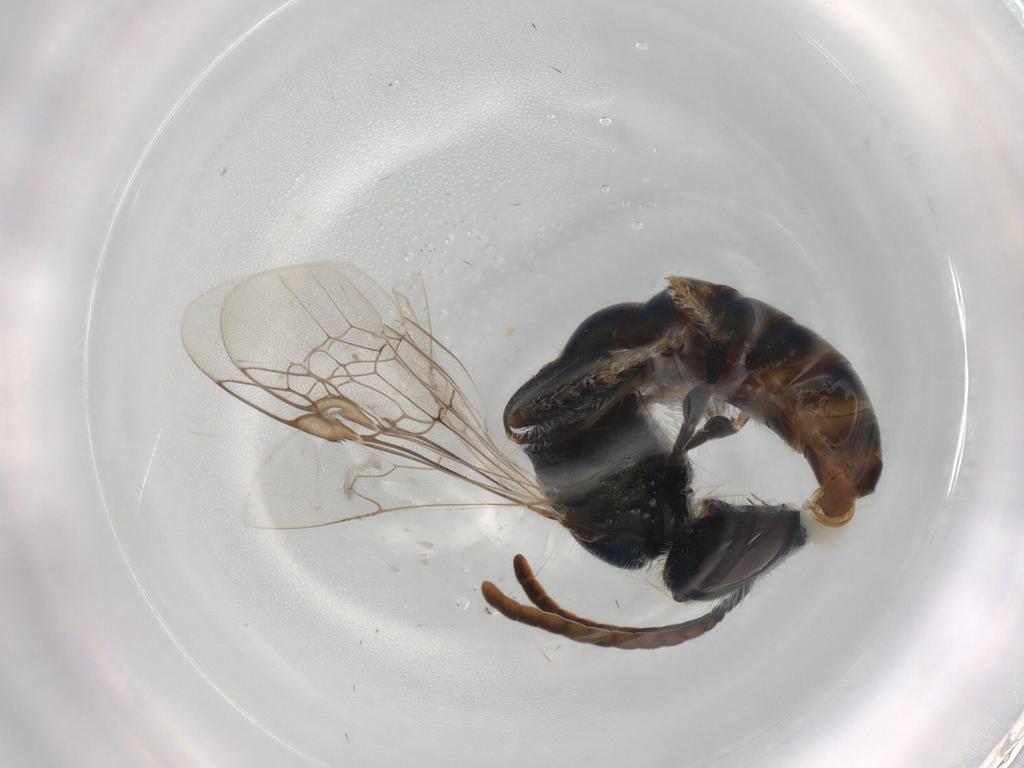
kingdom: Animalia
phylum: Arthropoda
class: Insecta
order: Hymenoptera
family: Halictidae
